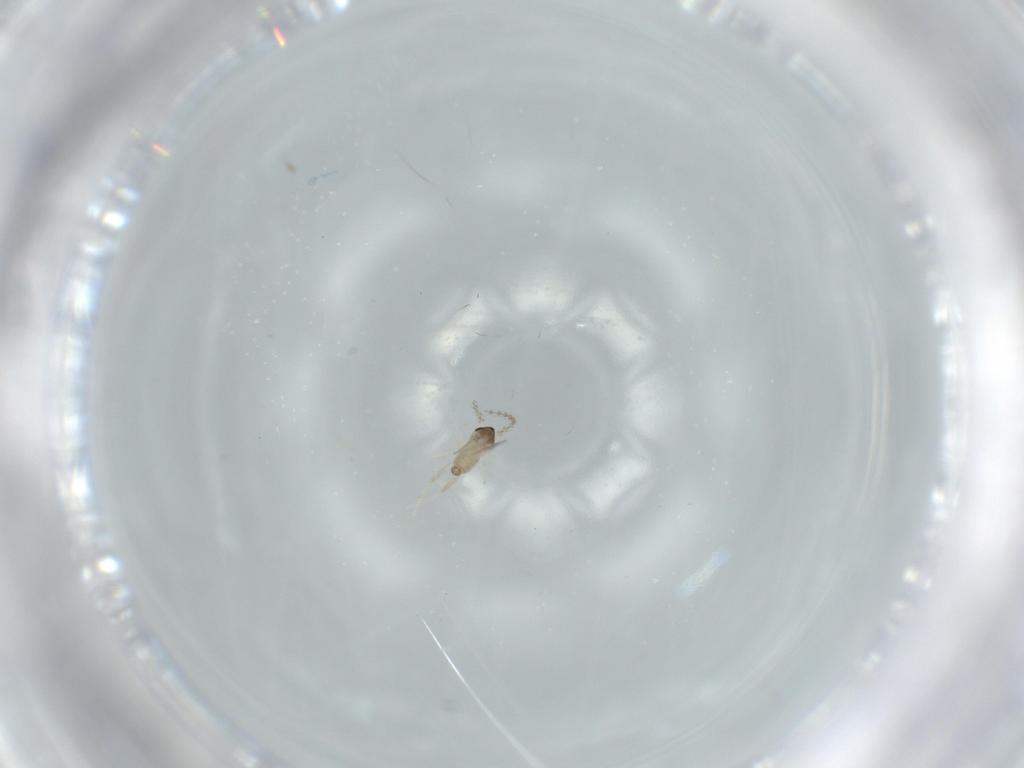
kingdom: Animalia
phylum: Arthropoda
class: Insecta
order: Diptera
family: Cecidomyiidae
